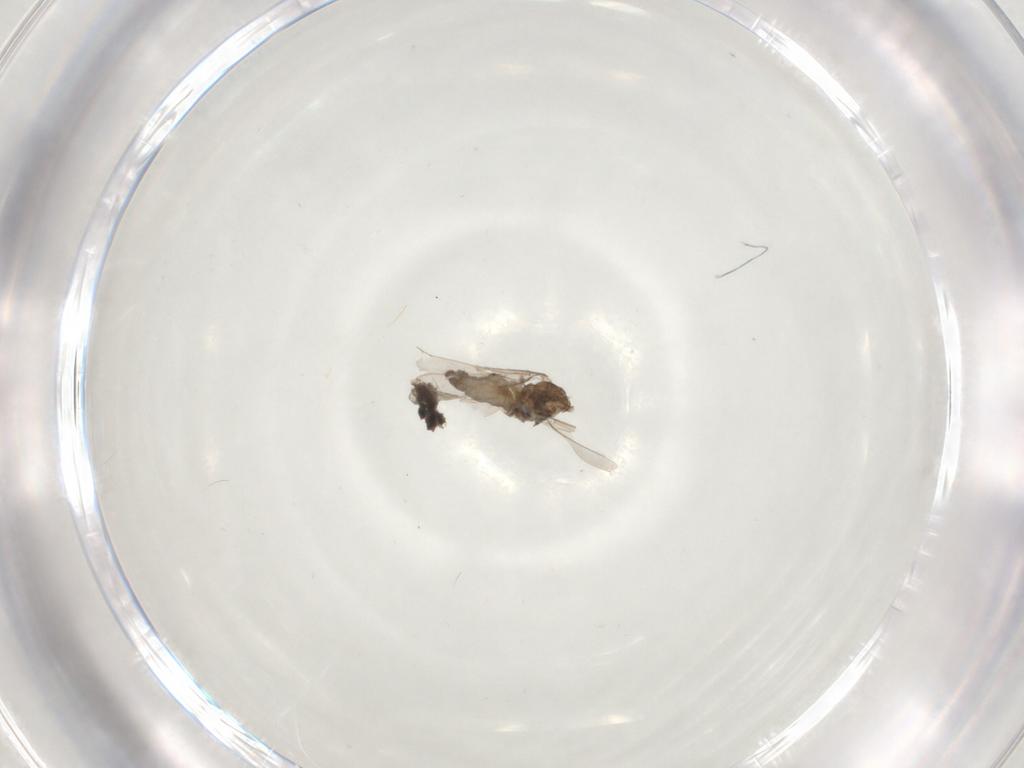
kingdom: Animalia
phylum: Arthropoda
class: Insecta
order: Diptera
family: Cecidomyiidae
